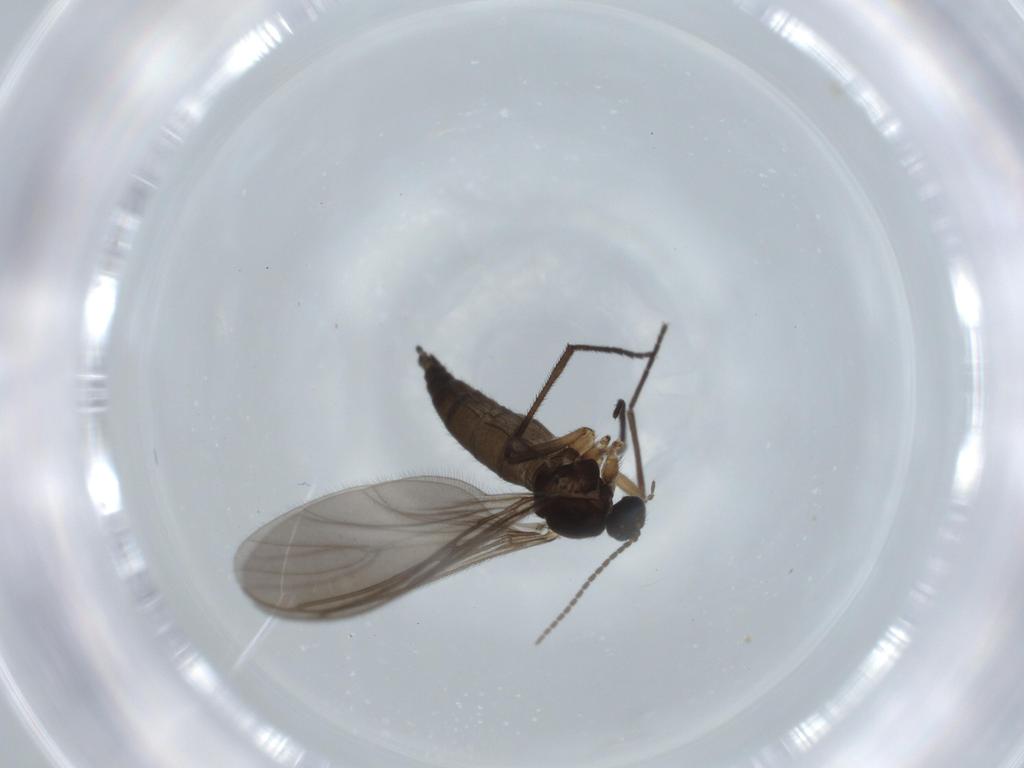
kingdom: Animalia
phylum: Arthropoda
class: Insecta
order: Diptera
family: Sciaridae
